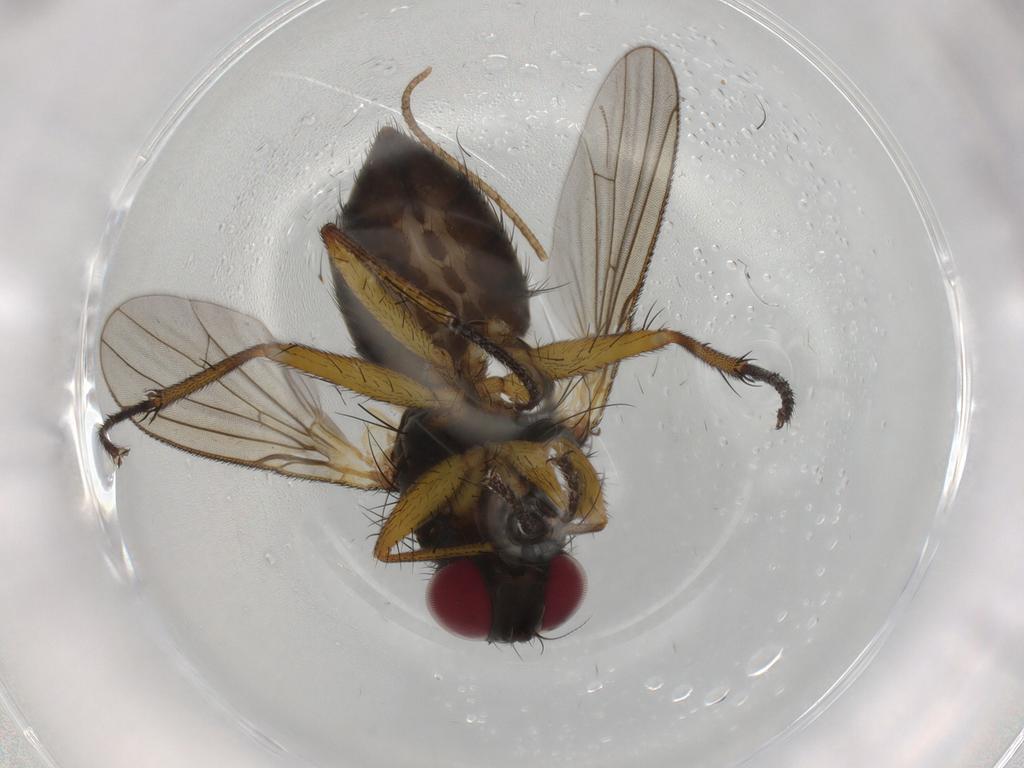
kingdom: Animalia
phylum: Arthropoda
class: Insecta
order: Diptera
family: Muscidae
